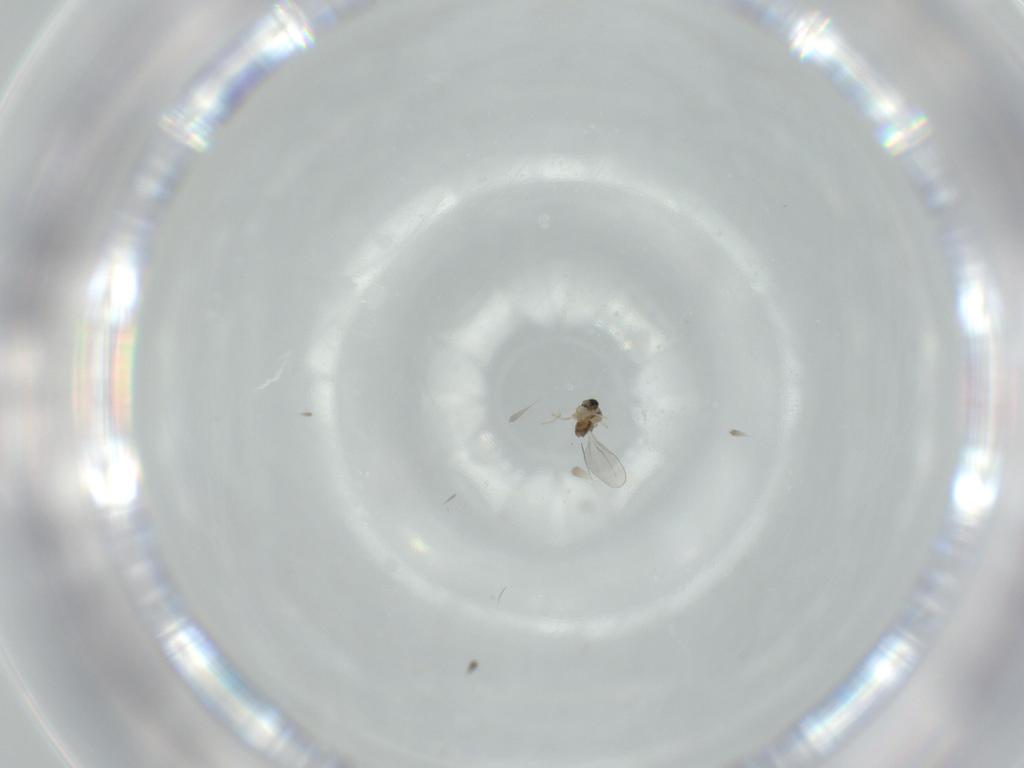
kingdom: Animalia
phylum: Arthropoda
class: Insecta
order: Diptera
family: Cecidomyiidae
